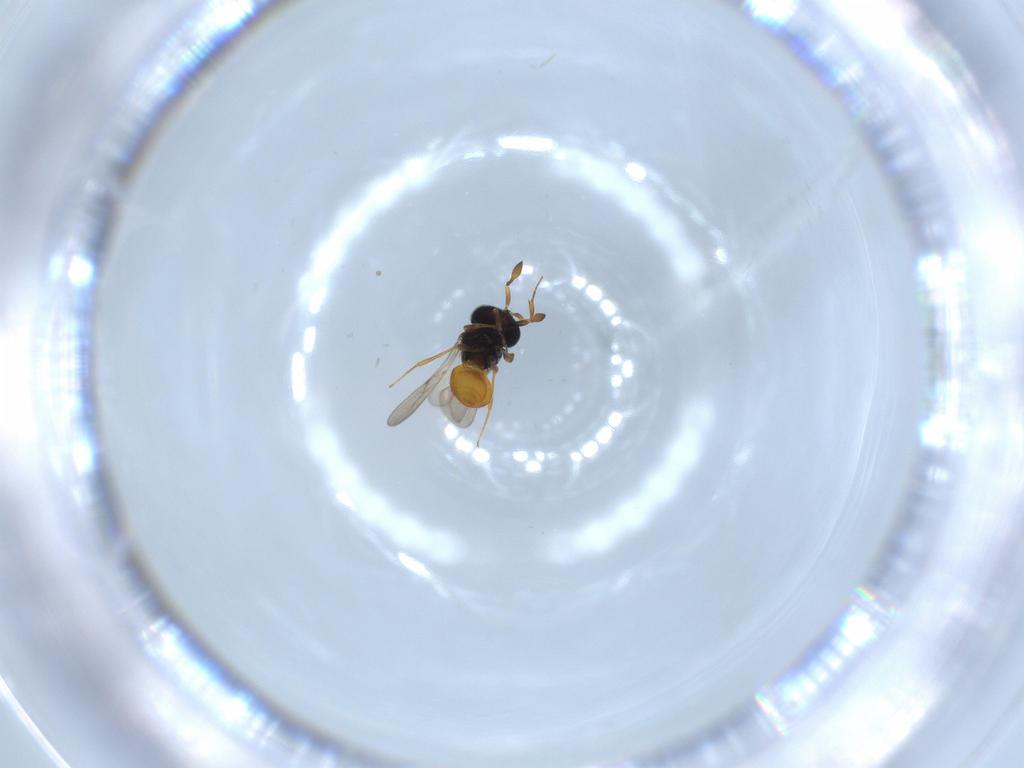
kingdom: Animalia
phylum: Arthropoda
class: Insecta
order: Hymenoptera
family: Scelionidae
